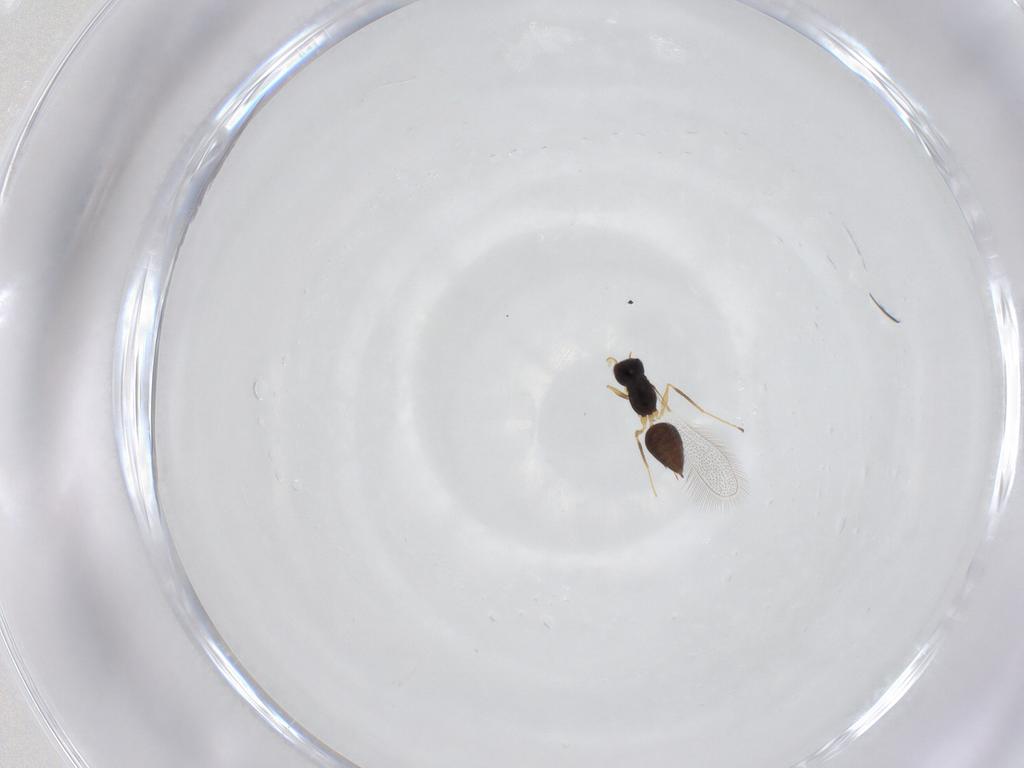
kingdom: Animalia
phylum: Arthropoda
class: Insecta
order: Hymenoptera
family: Mymaridae
